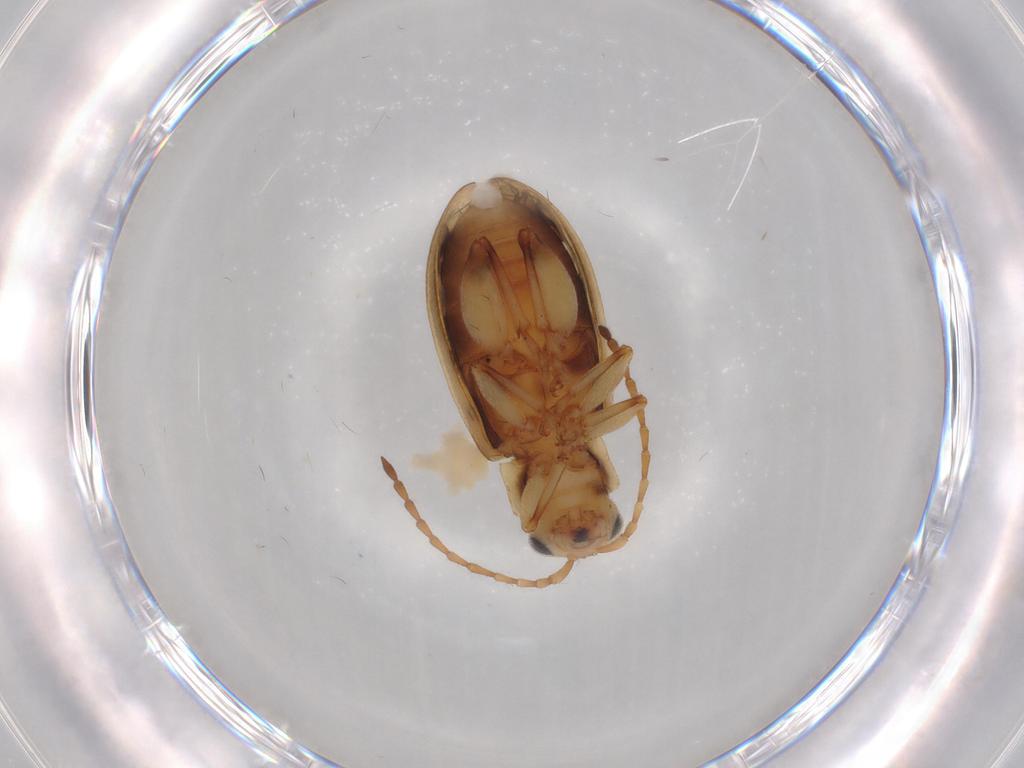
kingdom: Animalia
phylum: Arthropoda
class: Insecta
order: Coleoptera
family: Chrysomelidae
